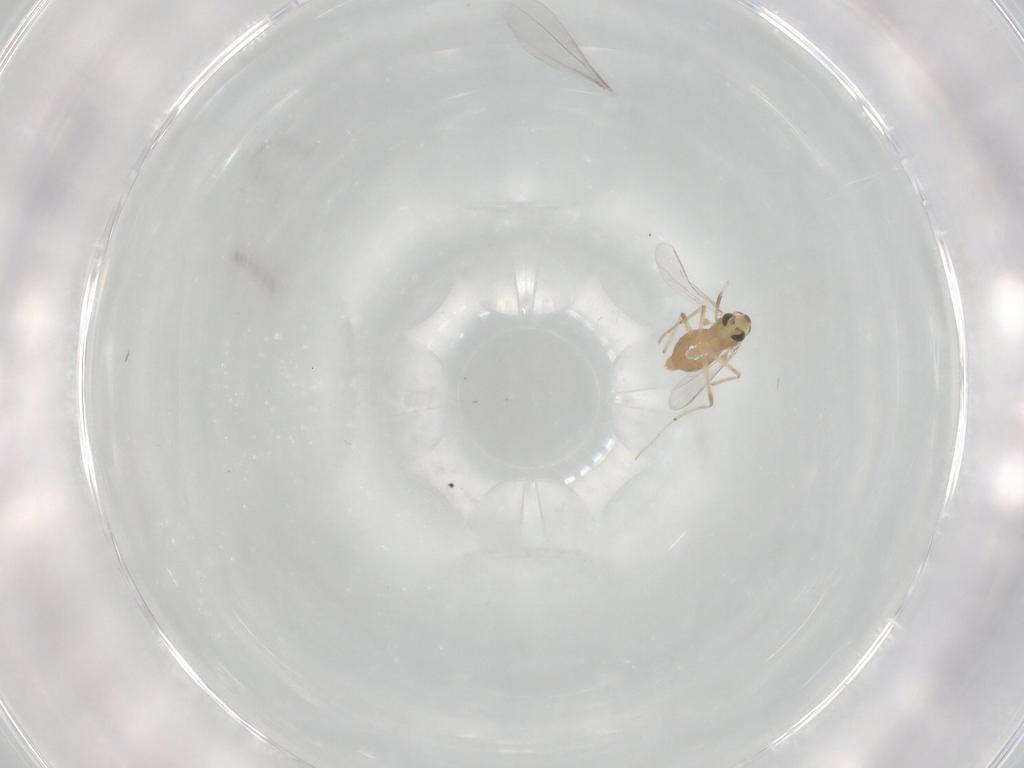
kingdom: Animalia
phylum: Arthropoda
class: Insecta
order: Diptera
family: Chironomidae
